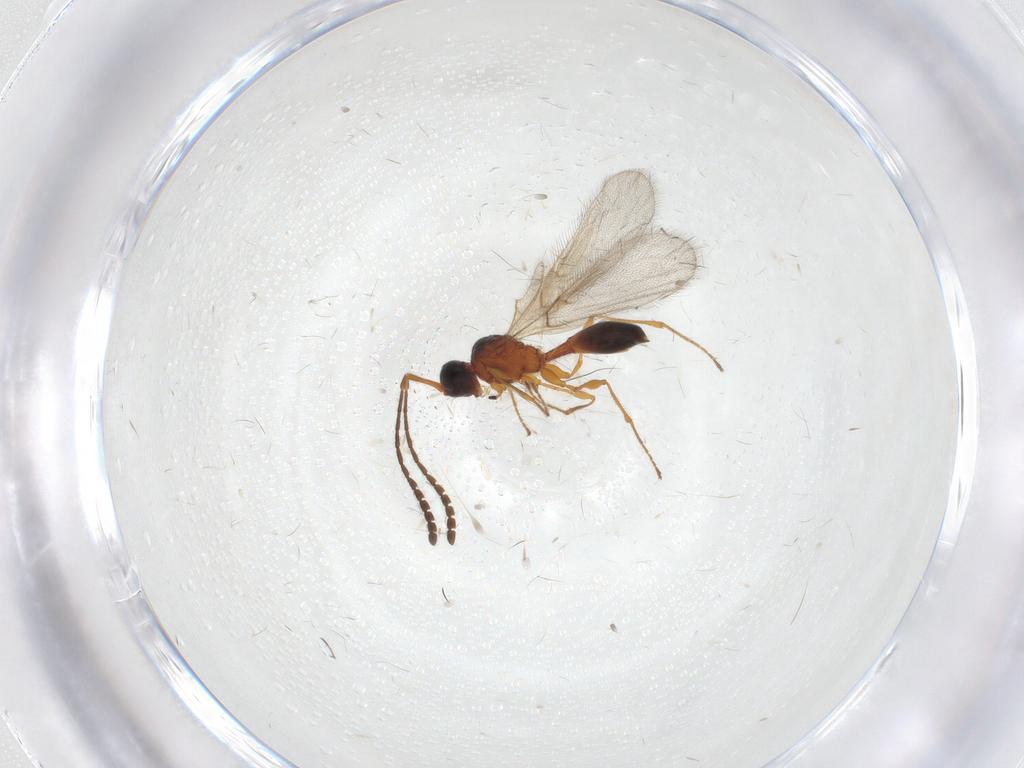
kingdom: Animalia
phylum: Arthropoda
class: Insecta
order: Hymenoptera
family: Diapriidae
